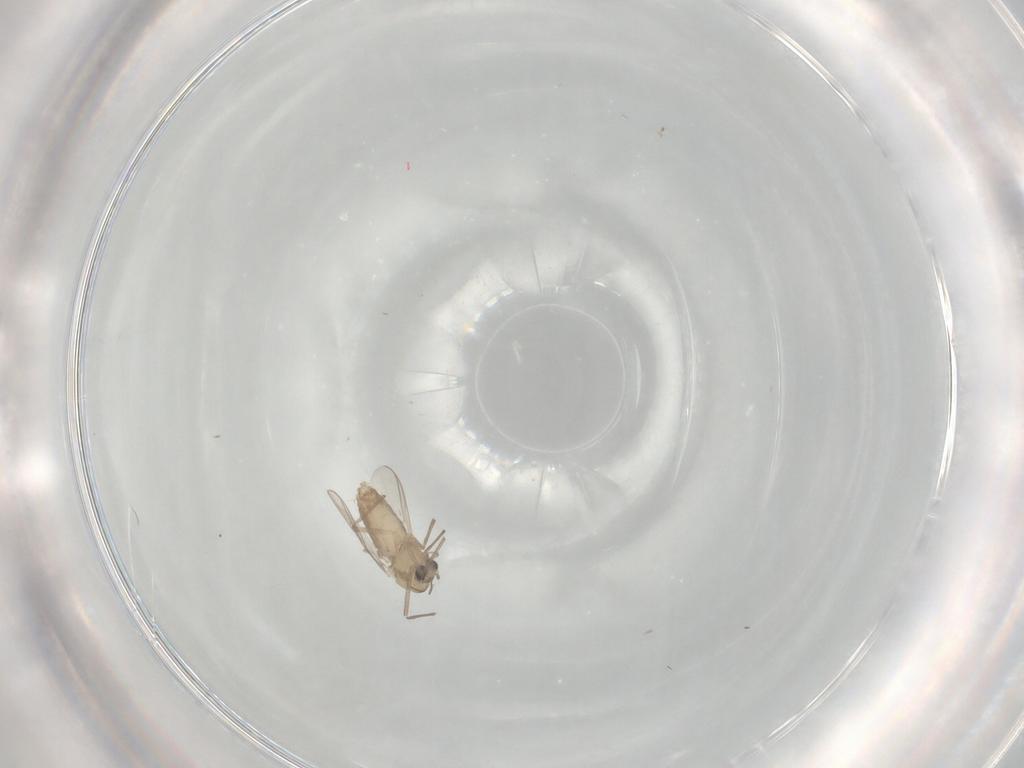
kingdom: Animalia
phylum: Arthropoda
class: Insecta
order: Diptera
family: Chironomidae
